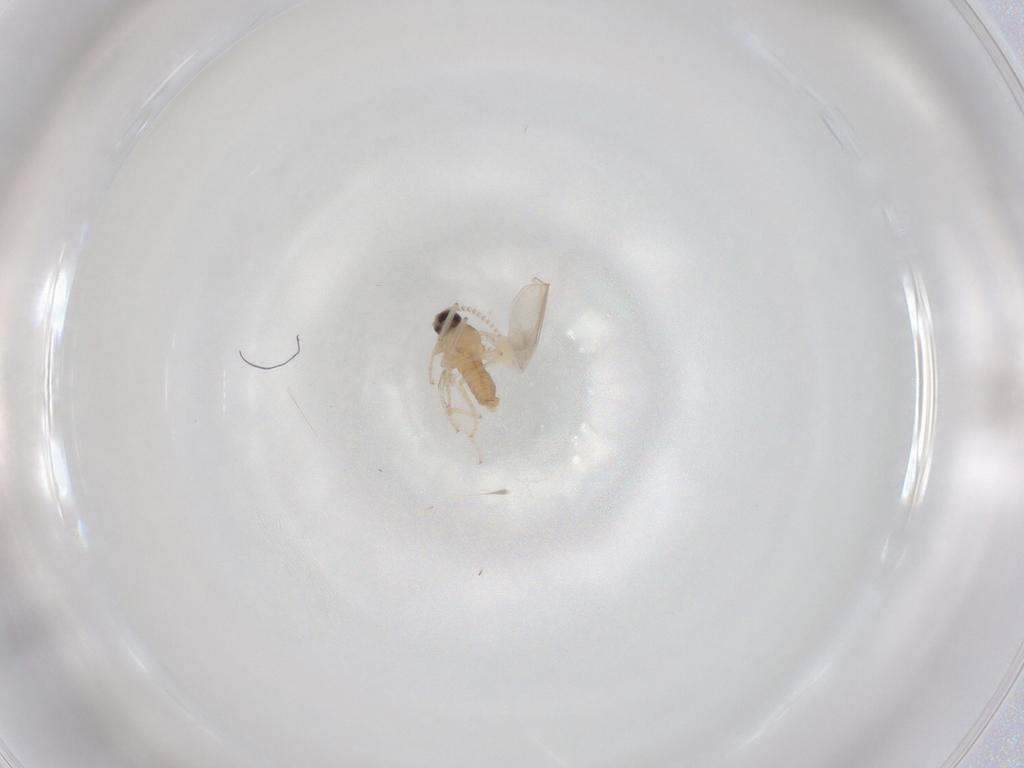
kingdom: Animalia
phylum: Arthropoda
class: Insecta
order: Diptera
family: Cecidomyiidae
